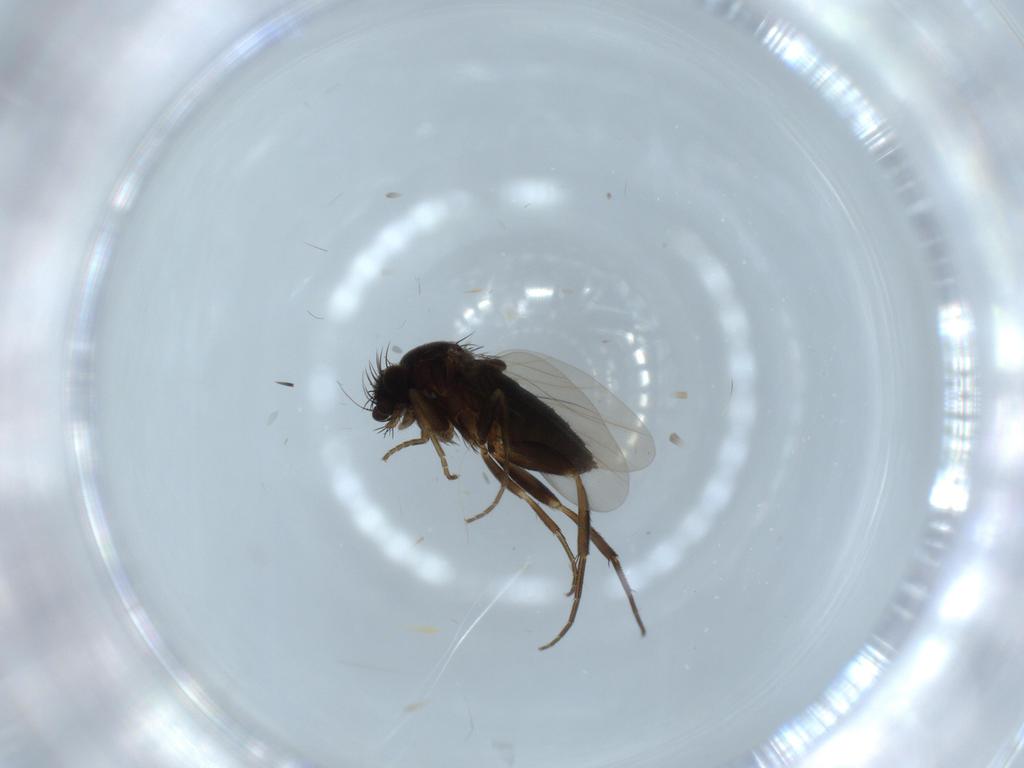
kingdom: Animalia
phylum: Arthropoda
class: Insecta
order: Diptera
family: Phoridae
